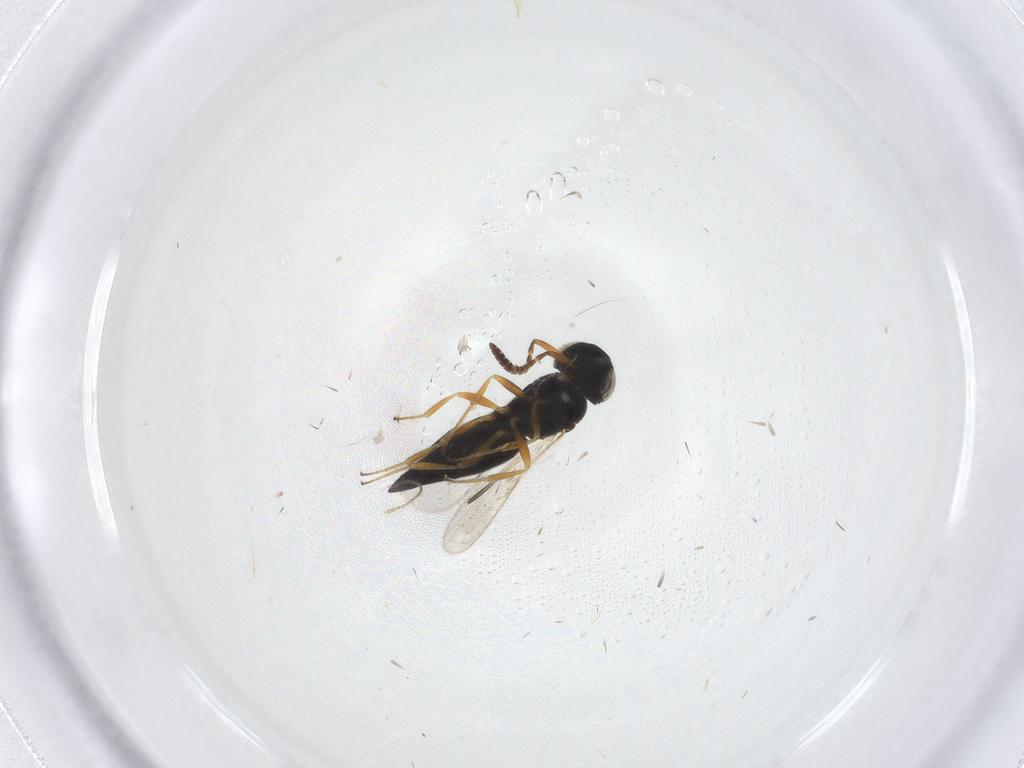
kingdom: Animalia
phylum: Arthropoda
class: Insecta
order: Hymenoptera
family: Scelionidae
